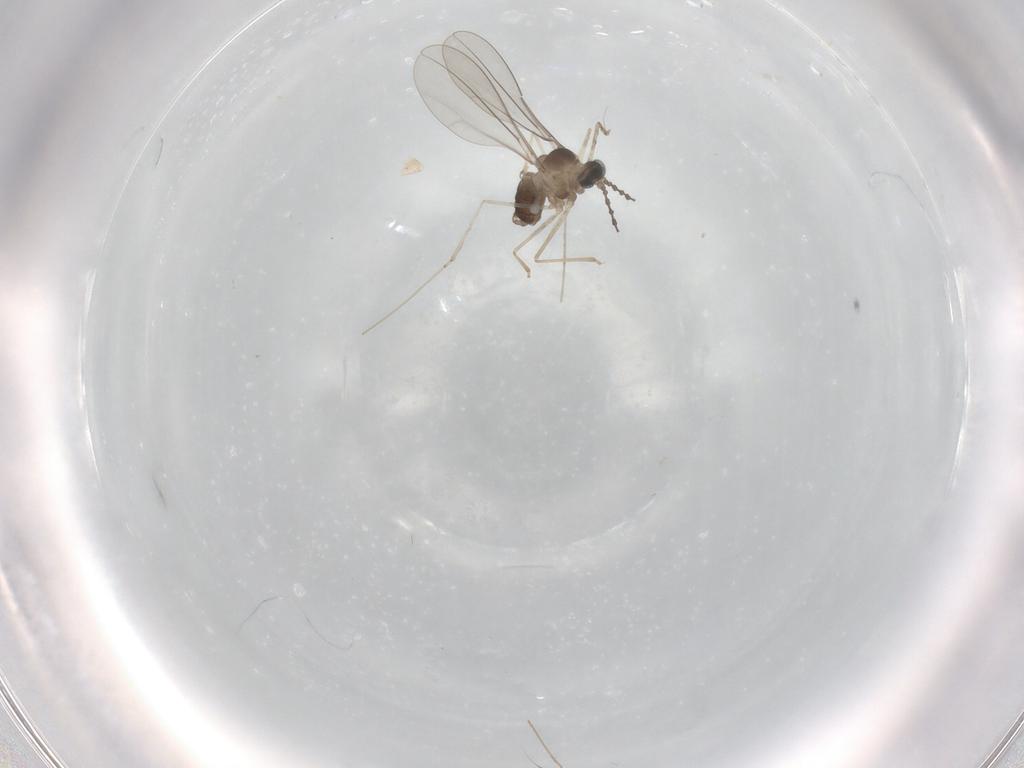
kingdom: Animalia
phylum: Arthropoda
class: Insecta
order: Diptera
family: Cecidomyiidae
